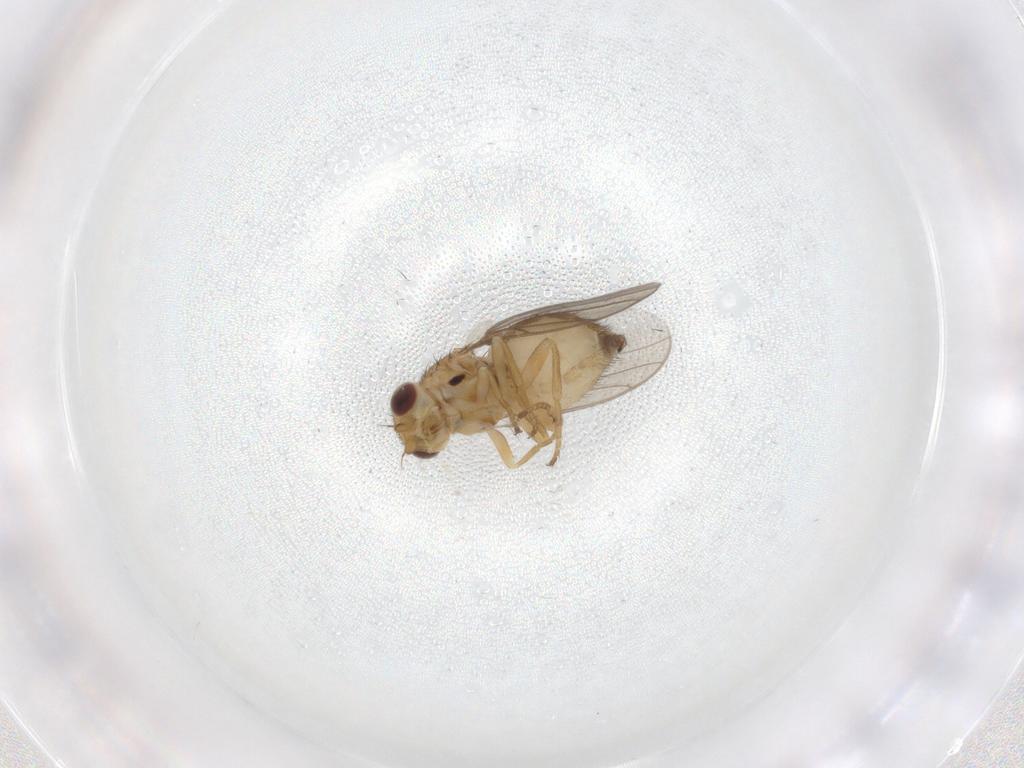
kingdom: Animalia
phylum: Arthropoda
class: Insecta
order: Diptera
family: Chloropidae
